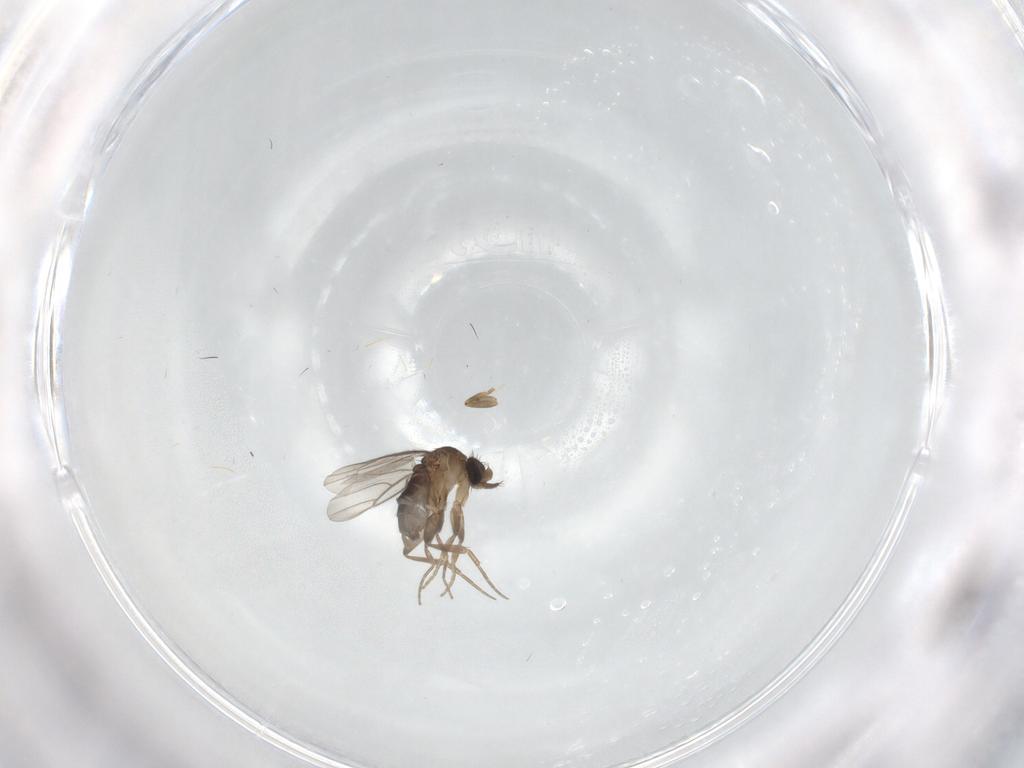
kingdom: Animalia
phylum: Arthropoda
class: Insecta
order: Diptera
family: Phoridae
